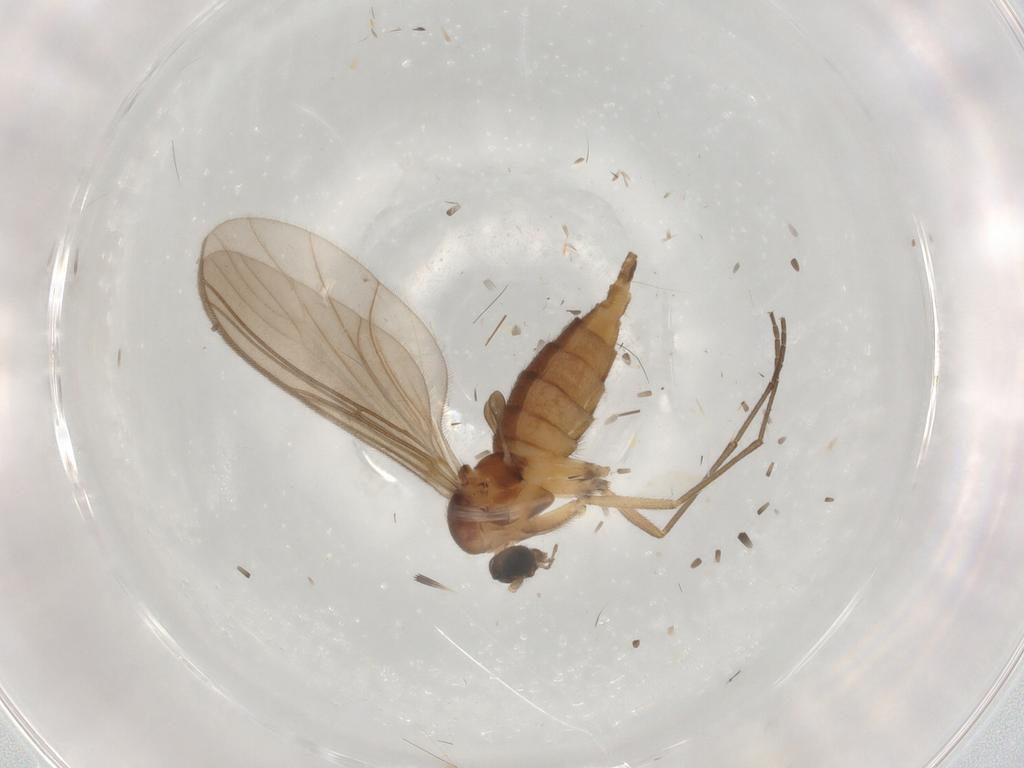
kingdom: Animalia
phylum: Arthropoda
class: Insecta
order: Diptera
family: Sciaridae
